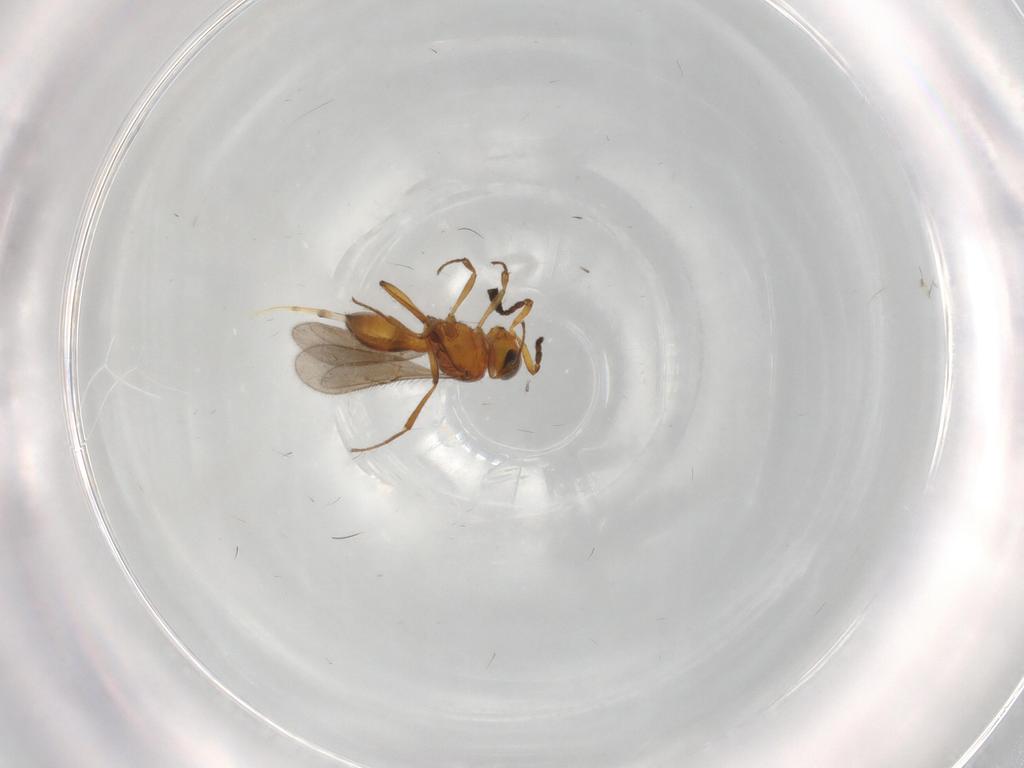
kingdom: Animalia
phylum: Arthropoda
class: Insecta
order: Hymenoptera
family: Scelionidae
